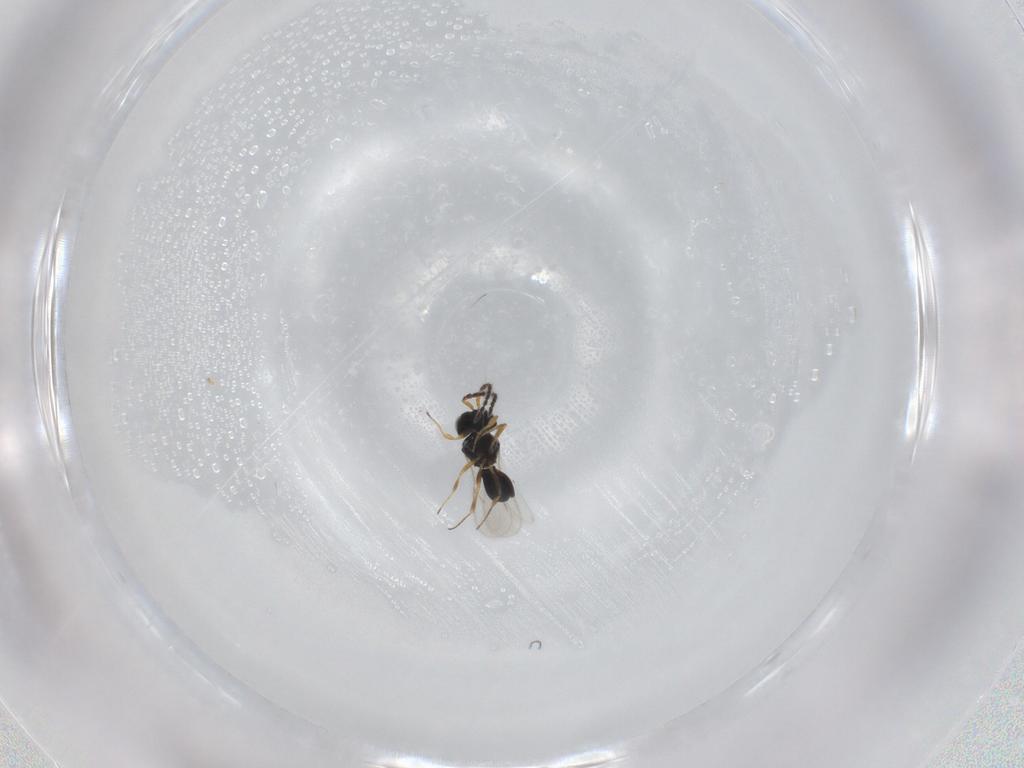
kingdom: Animalia
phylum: Arthropoda
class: Insecta
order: Hymenoptera
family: Scelionidae
